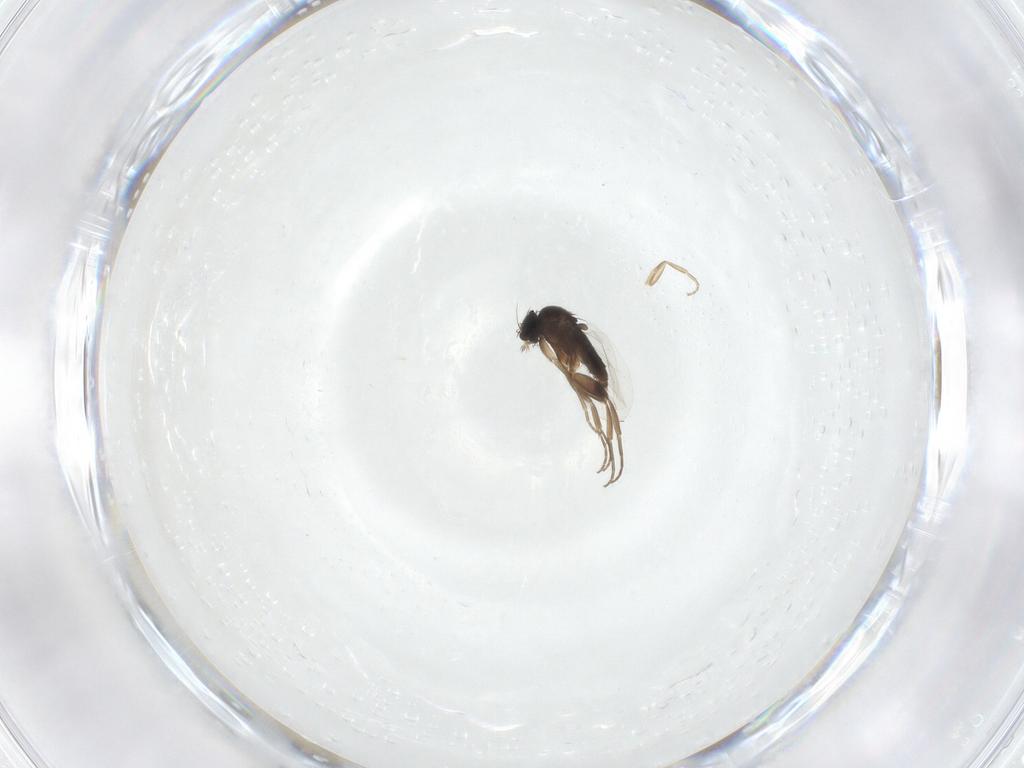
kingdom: Animalia
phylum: Arthropoda
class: Insecta
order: Diptera
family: Phoridae
